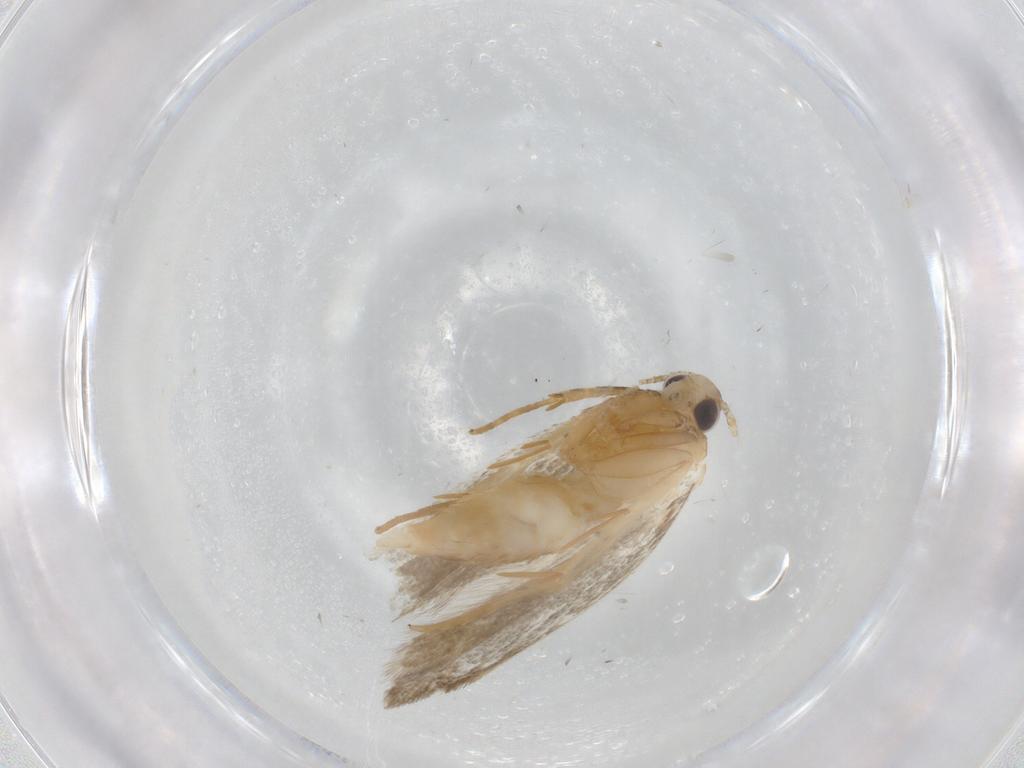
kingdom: Animalia
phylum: Arthropoda
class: Insecta
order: Lepidoptera
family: Autostichidae
